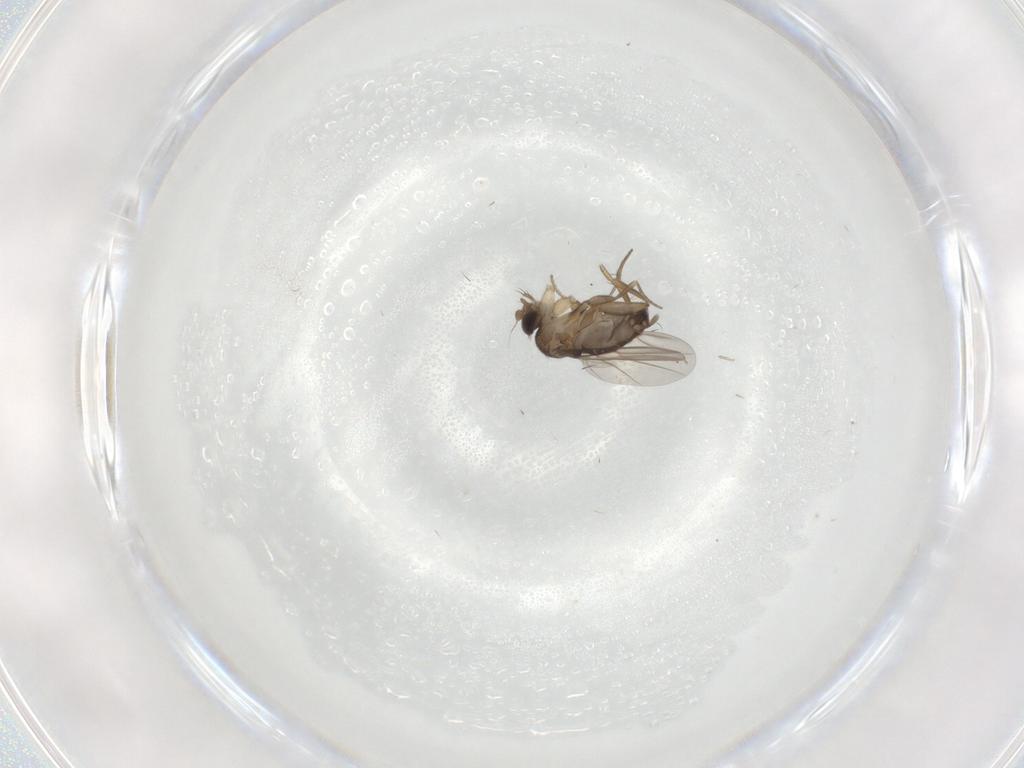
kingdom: Animalia
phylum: Arthropoda
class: Insecta
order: Diptera
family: Phoridae
